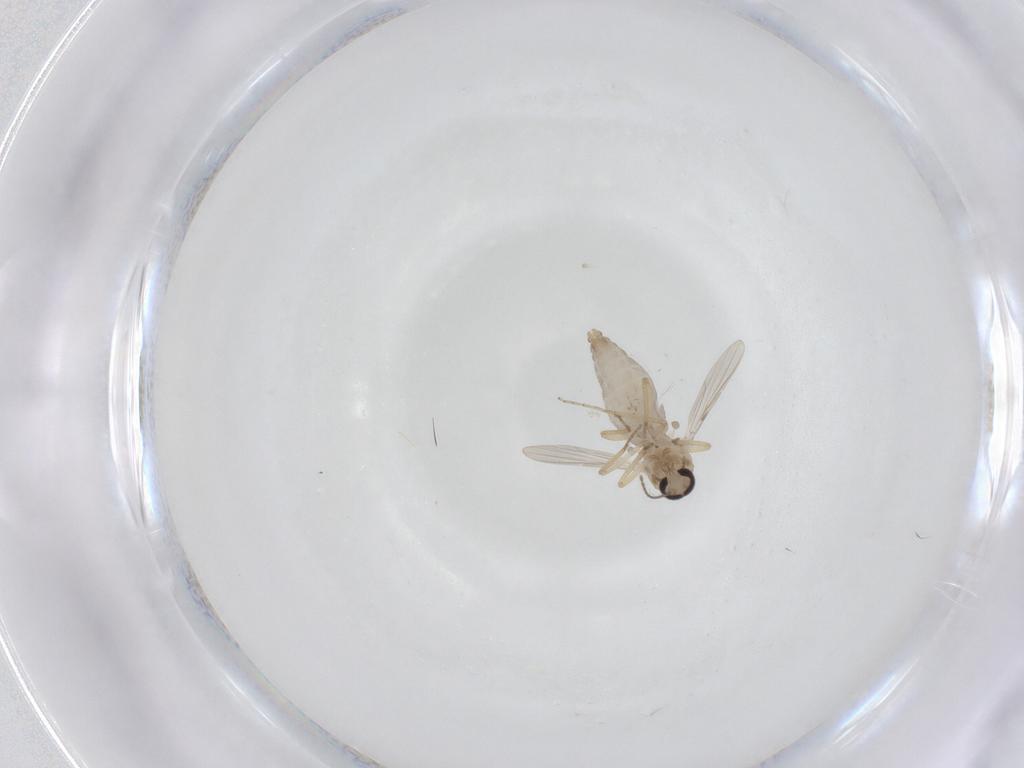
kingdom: Animalia
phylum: Arthropoda
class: Insecta
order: Diptera
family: Ceratopogonidae
